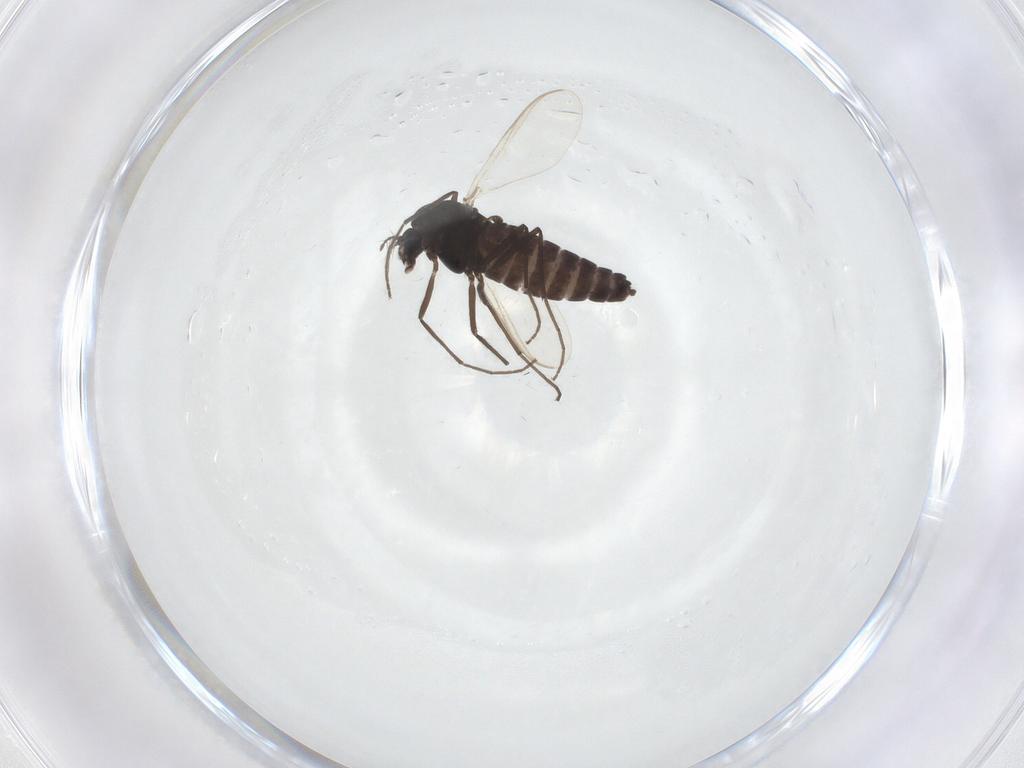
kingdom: Animalia
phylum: Arthropoda
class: Insecta
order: Diptera
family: Chironomidae
